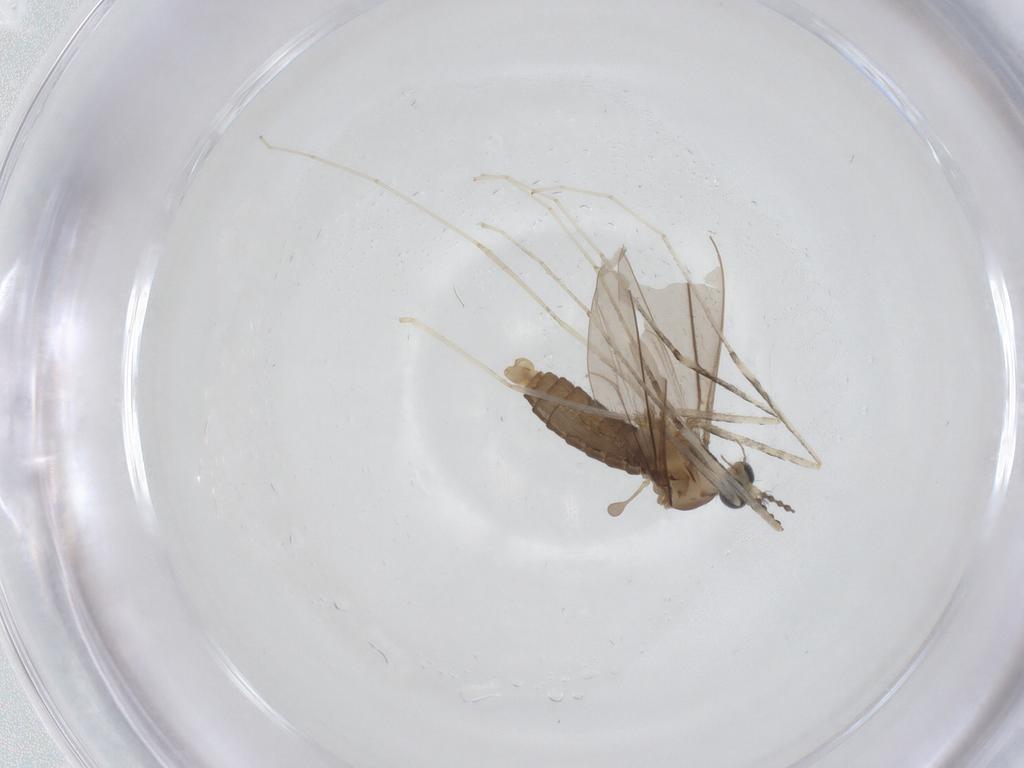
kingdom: Animalia
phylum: Arthropoda
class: Insecta
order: Diptera
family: Cecidomyiidae
